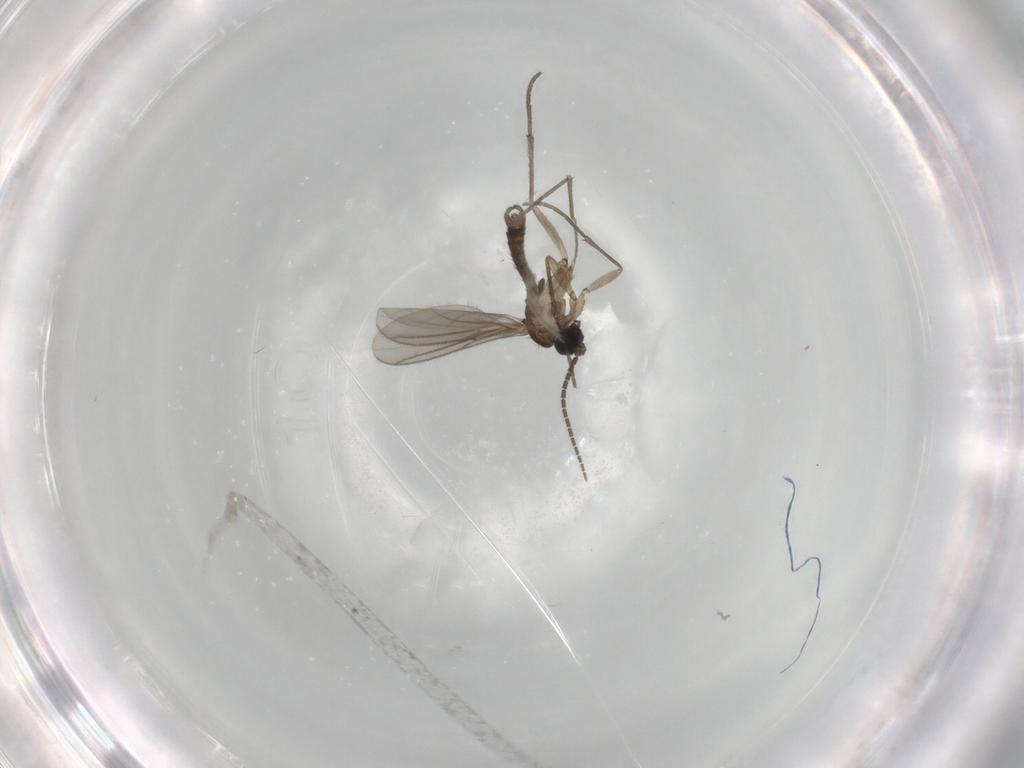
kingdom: Animalia
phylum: Arthropoda
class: Insecta
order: Diptera
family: Sciaridae
